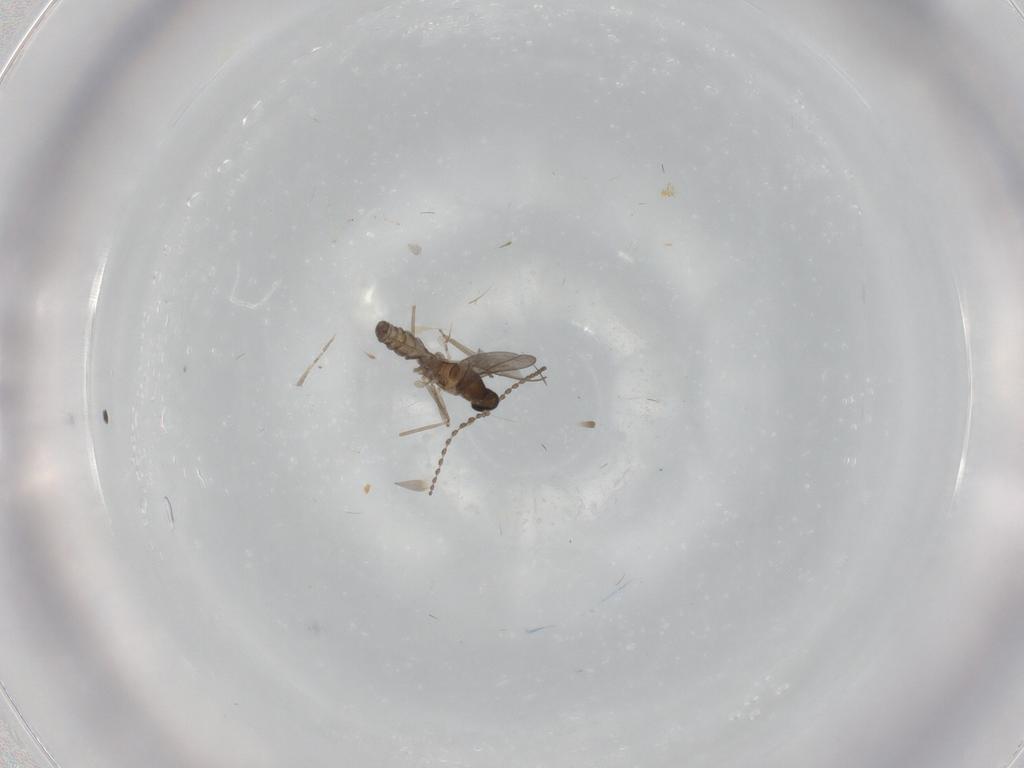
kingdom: Animalia
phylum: Arthropoda
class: Insecta
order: Diptera
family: Cecidomyiidae
